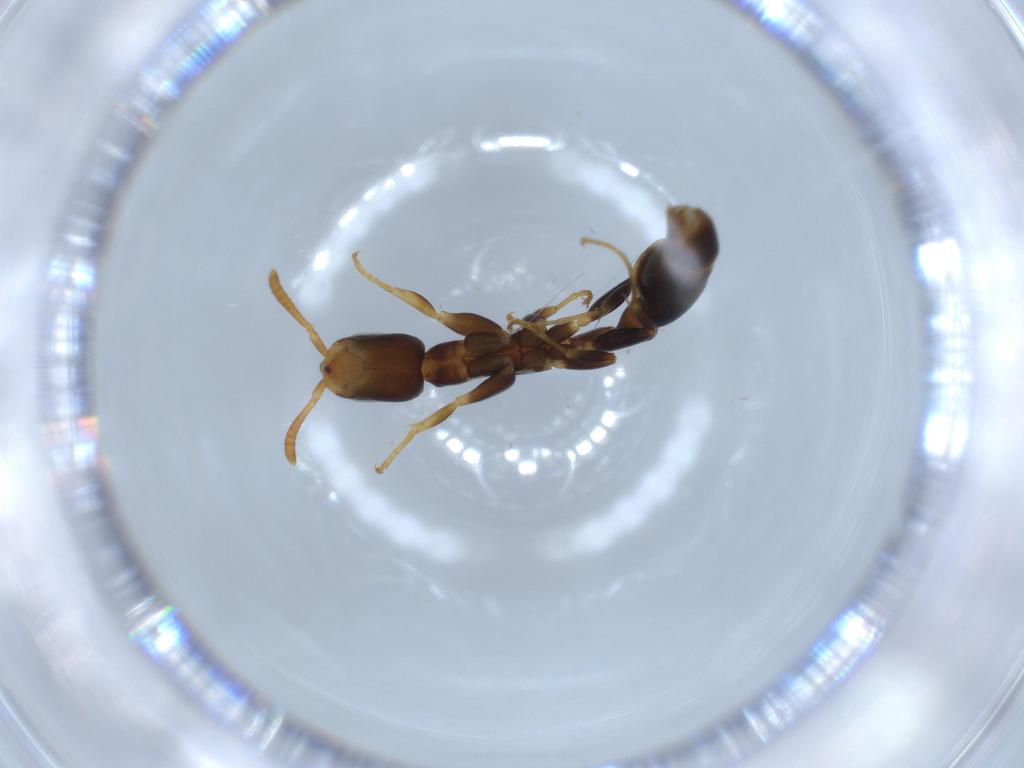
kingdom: Animalia
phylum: Arthropoda
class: Insecta
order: Hymenoptera
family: Formicidae
